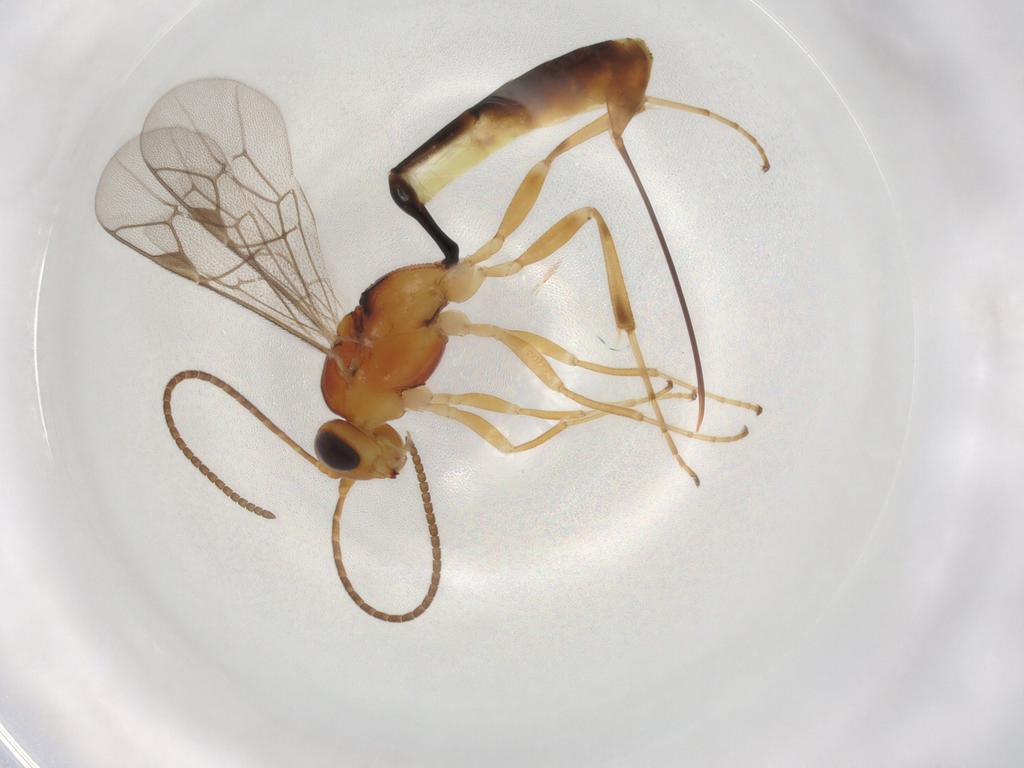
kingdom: Animalia
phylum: Arthropoda
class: Insecta
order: Hymenoptera
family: Ichneumonidae
